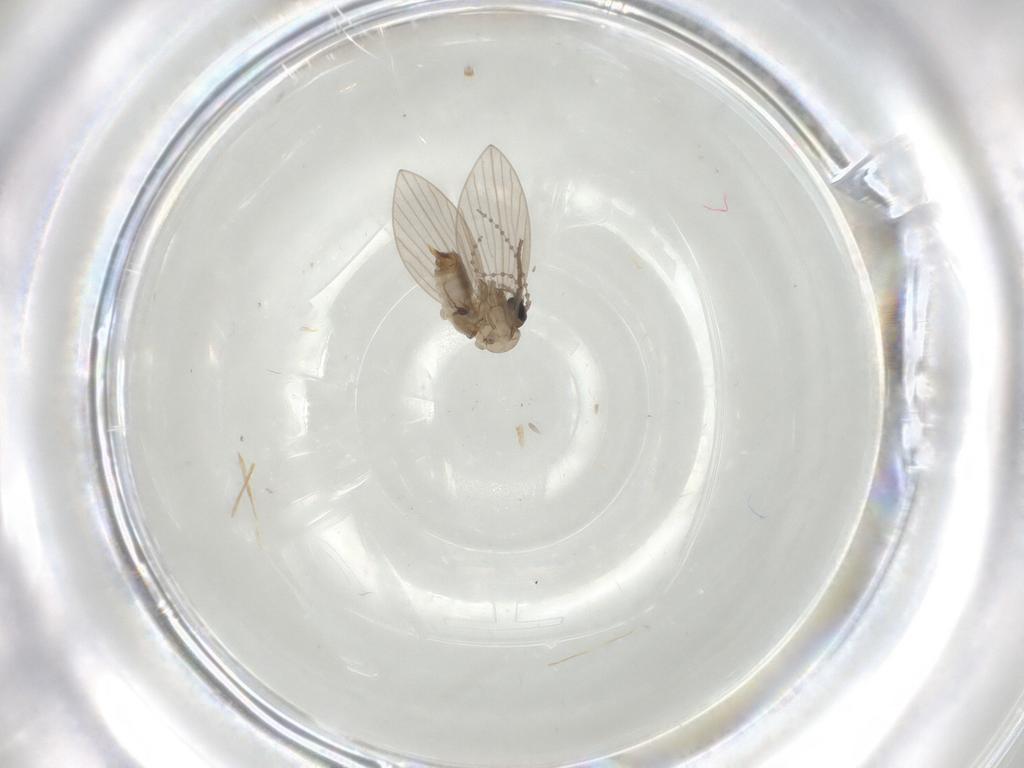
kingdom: Animalia
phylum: Arthropoda
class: Insecta
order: Diptera
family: Psychodidae
